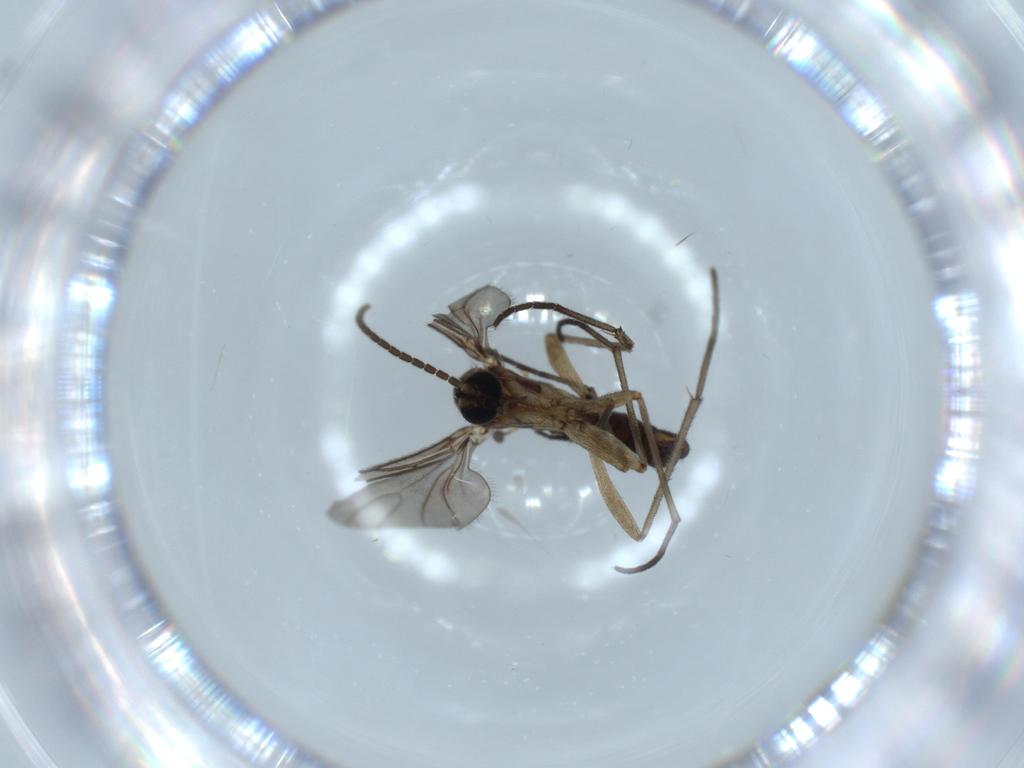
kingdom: Animalia
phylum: Arthropoda
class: Insecta
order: Diptera
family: Sciaridae
